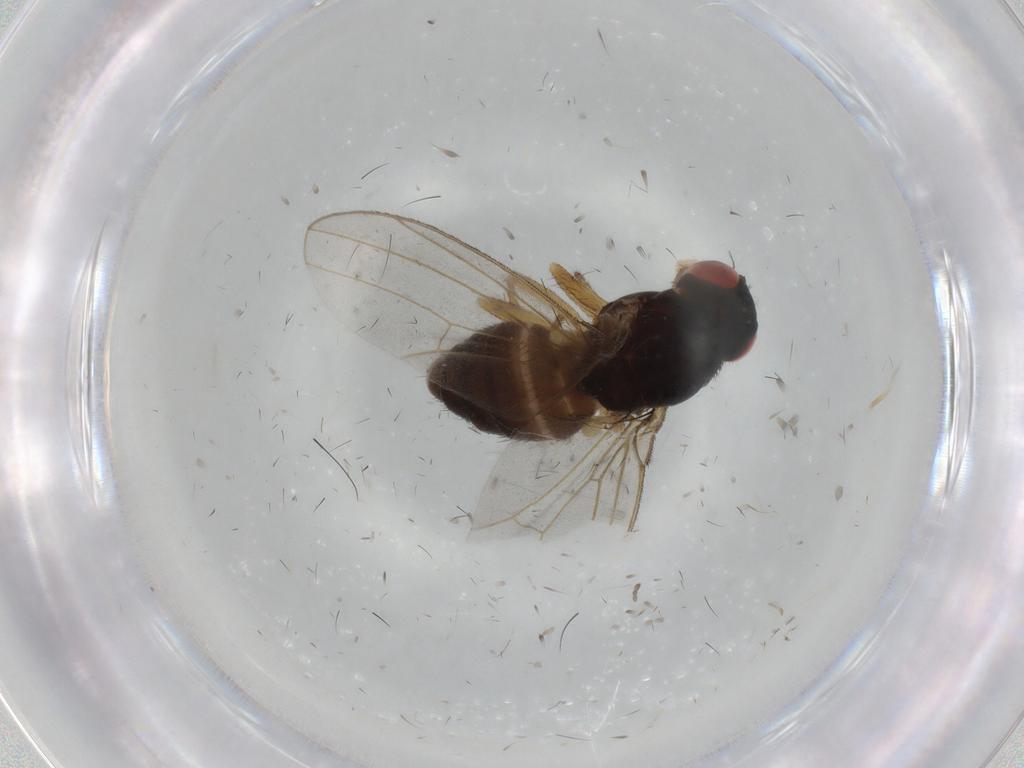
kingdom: Animalia
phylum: Arthropoda
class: Insecta
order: Diptera
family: Drosophilidae
